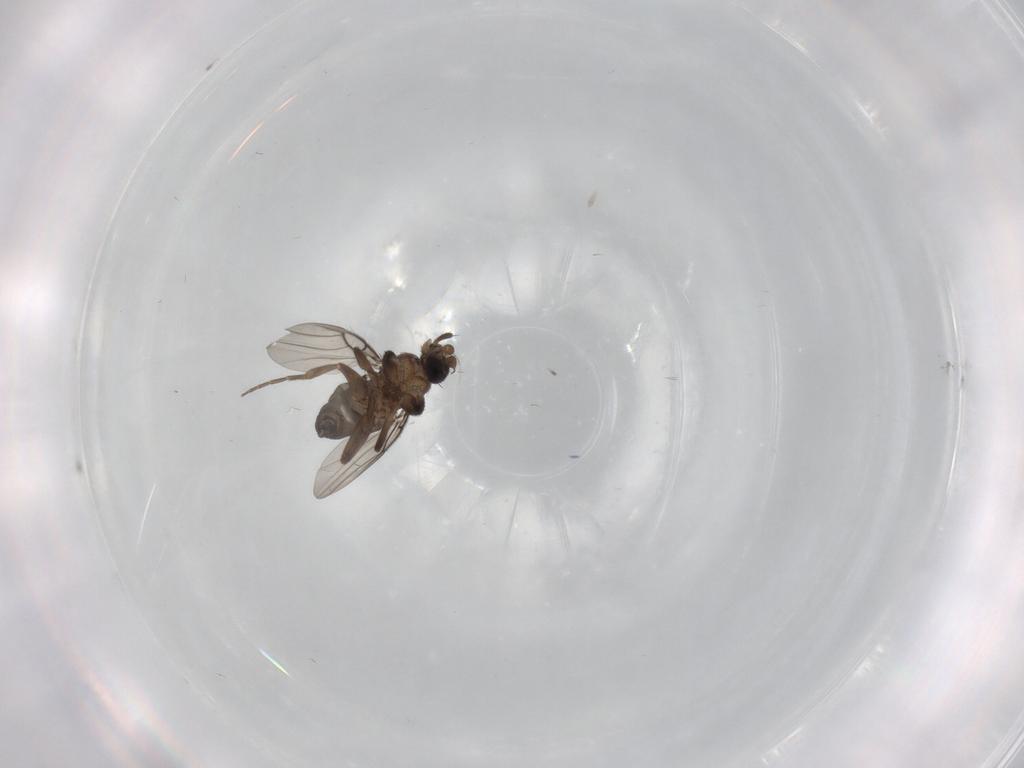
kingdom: Animalia
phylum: Arthropoda
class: Insecta
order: Diptera
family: Phoridae
